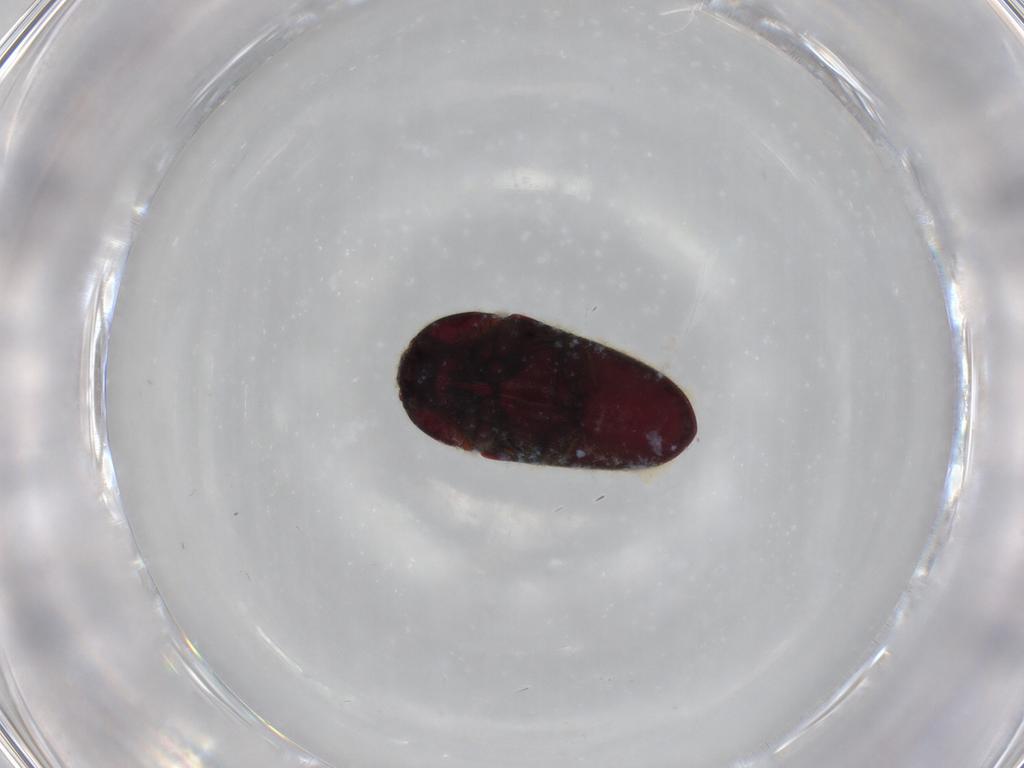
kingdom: Animalia
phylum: Arthropoda
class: Insecta
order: Coleoptera
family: Throscidae
